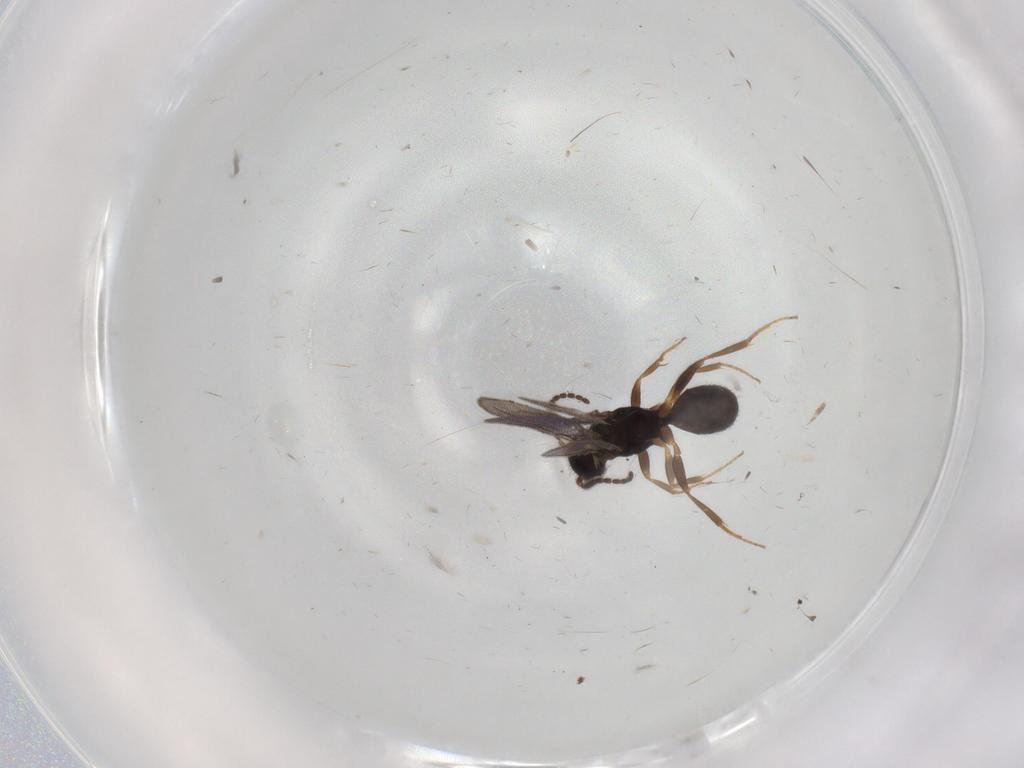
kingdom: Animalia
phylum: Arthropoda
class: Insecta
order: Hymenoptera
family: Bethylidae
